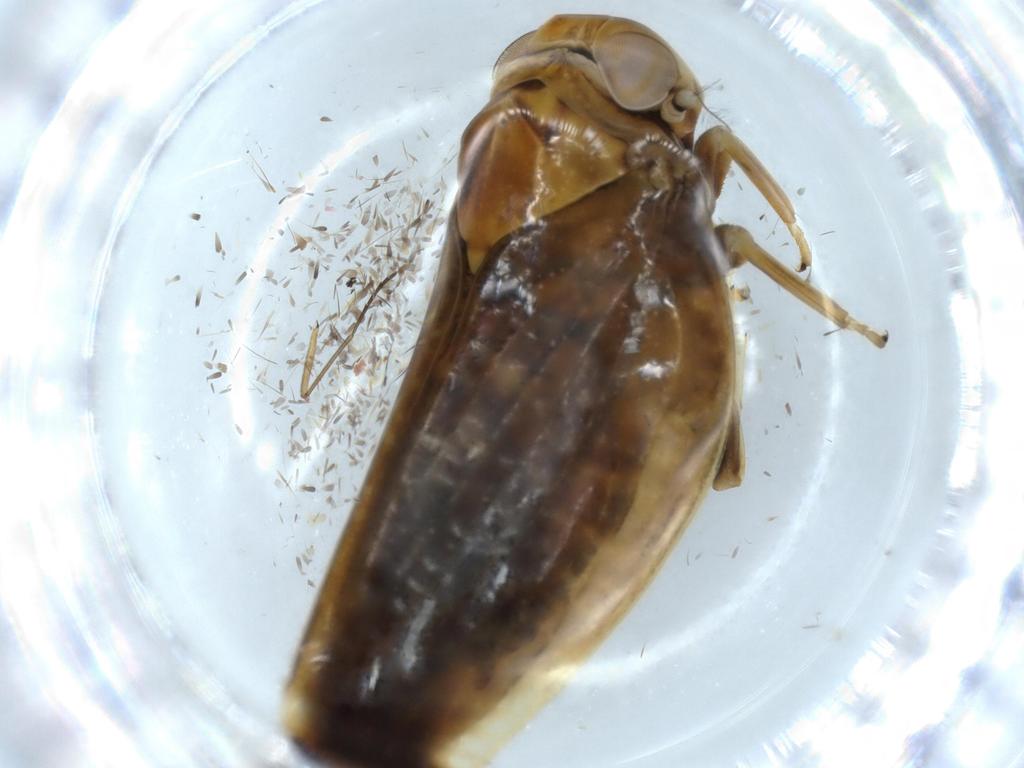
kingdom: Animalia
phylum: Arthropoda
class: Insecta
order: Hemiptera
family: Nogodinidae
